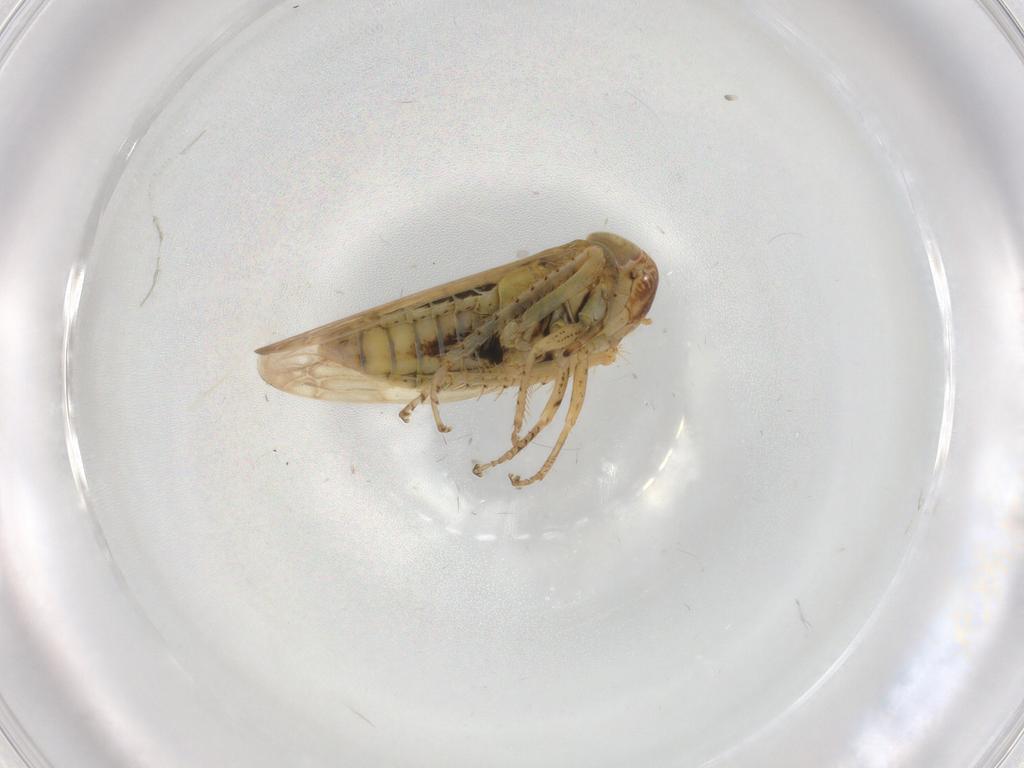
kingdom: Animalia
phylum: Arthropoda
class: Insecta
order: Hemiptera
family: Cicadellidae
